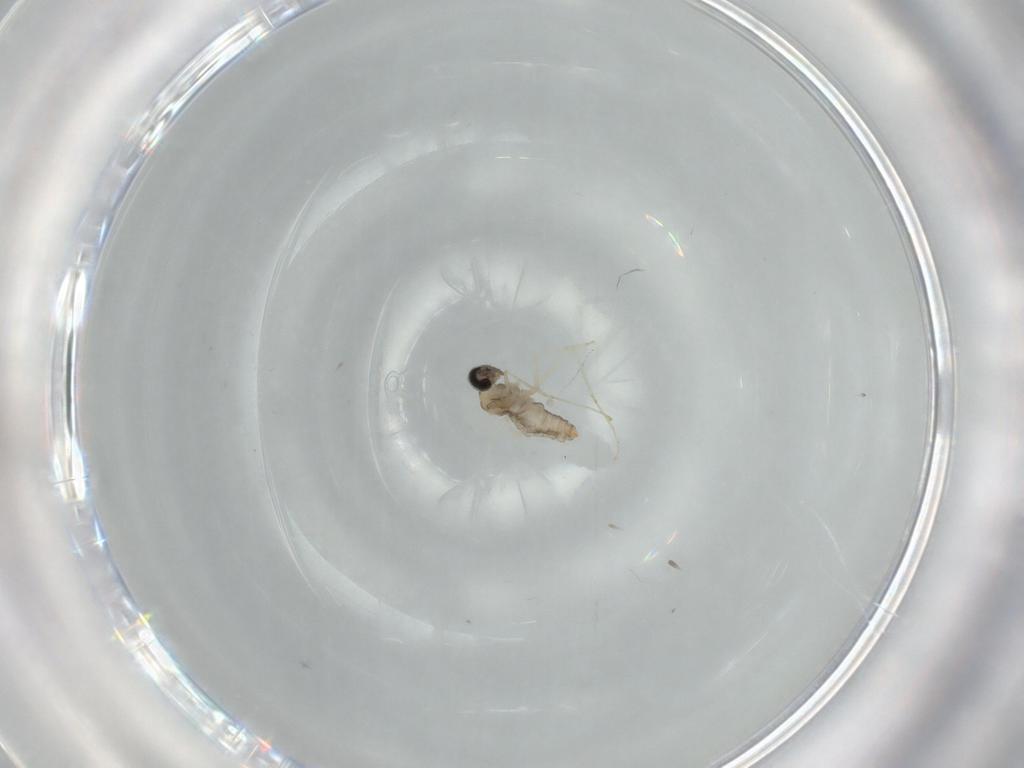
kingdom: Animalia
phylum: Arthropoda
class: Insecta
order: Diptera
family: Cecidomyiidae
